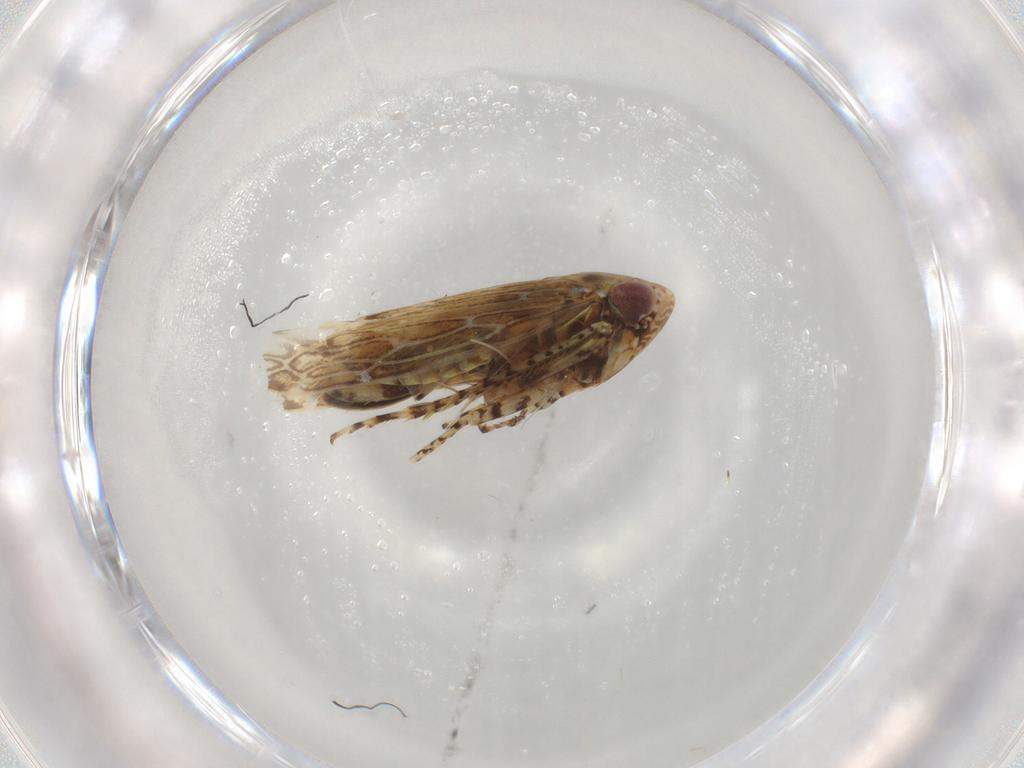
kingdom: Animalia
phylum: Arthropoda
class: Insecta
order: Hemiptera
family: Cicadellidae
